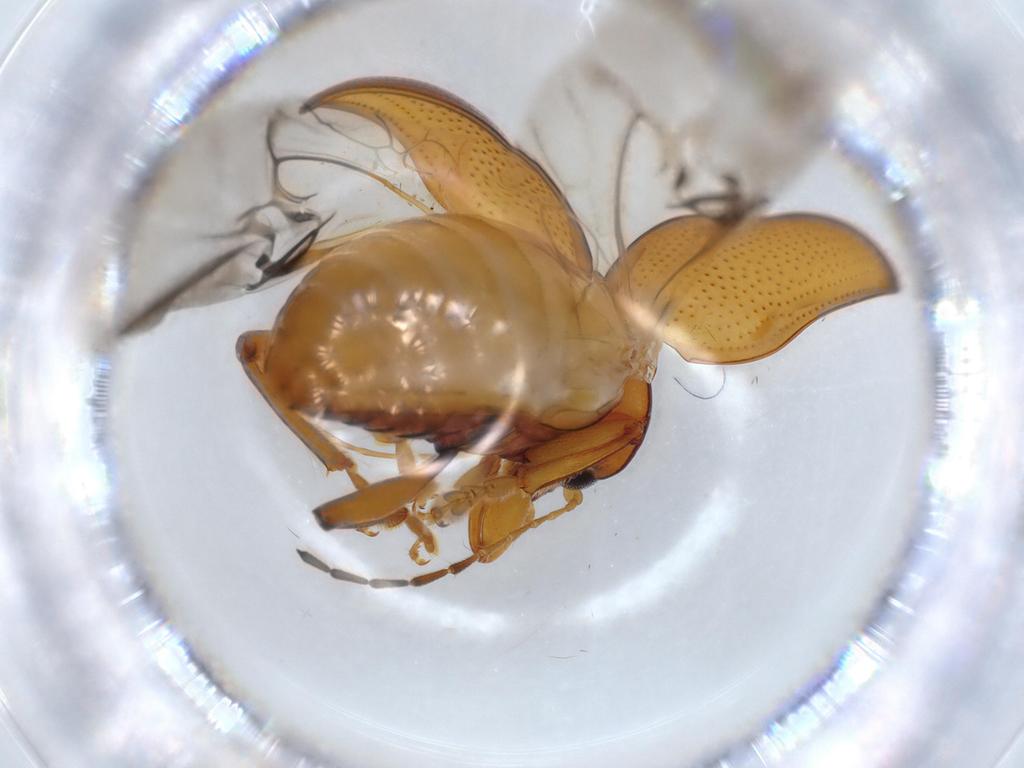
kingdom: Animalia
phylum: Arthropoda
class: Insecta
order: Coleoptera
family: Chrysomelidae
